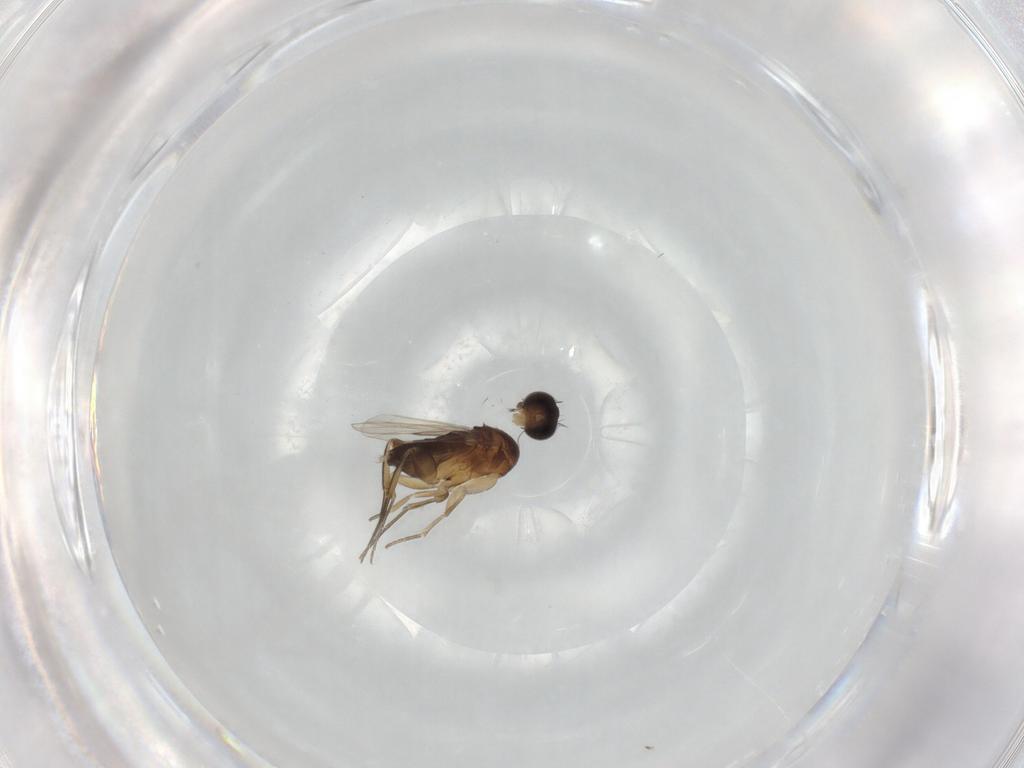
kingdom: Animalia
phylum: Arthropoda
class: Insecta
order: Diptera
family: Phoridae
